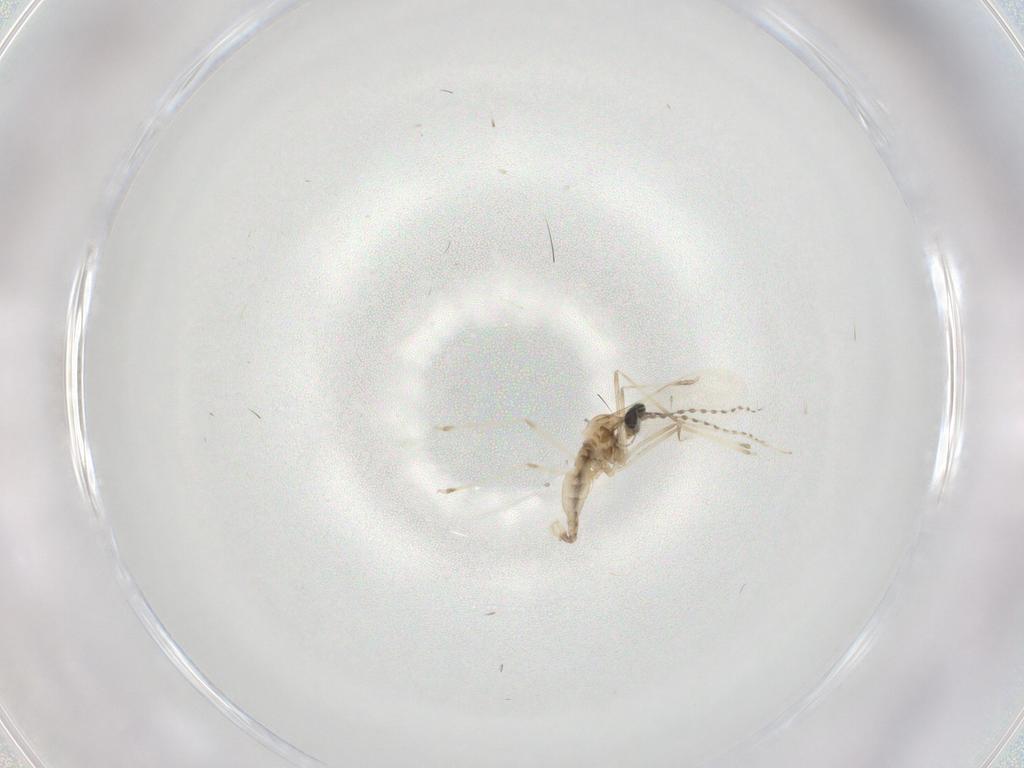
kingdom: Animalia
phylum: Arthropoda
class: Insecta
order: Diptera
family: Cecidomyiidae
